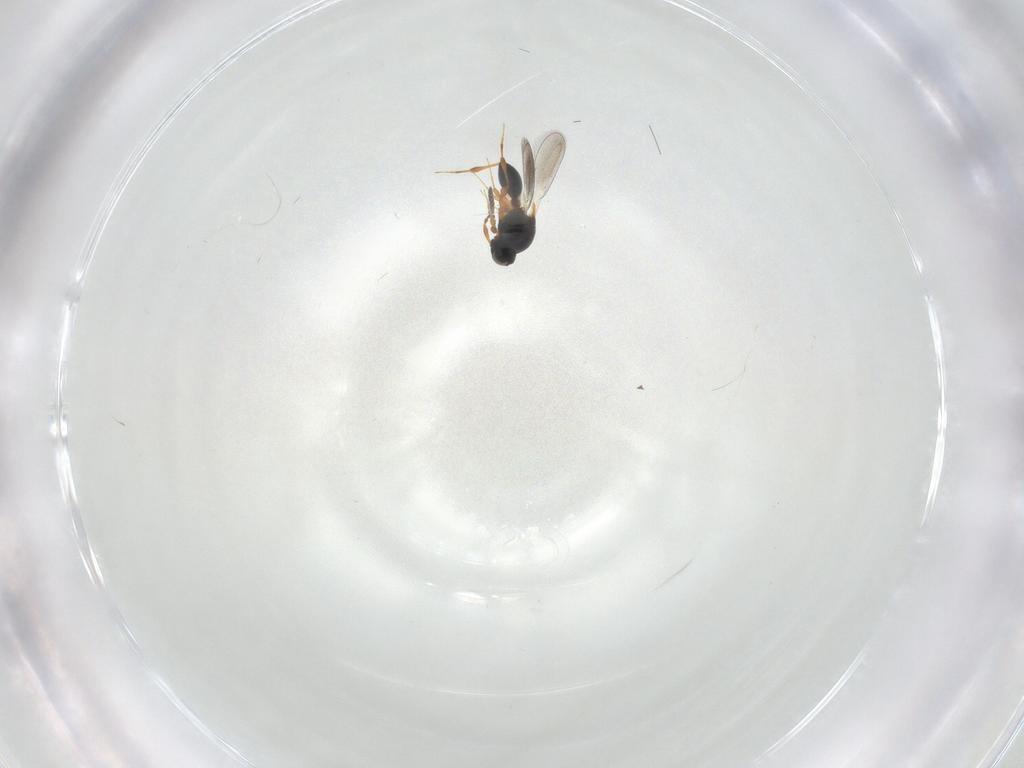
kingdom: Animalia
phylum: Arthropoda
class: Insecta
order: Hymenoptera
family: Platygastridae
